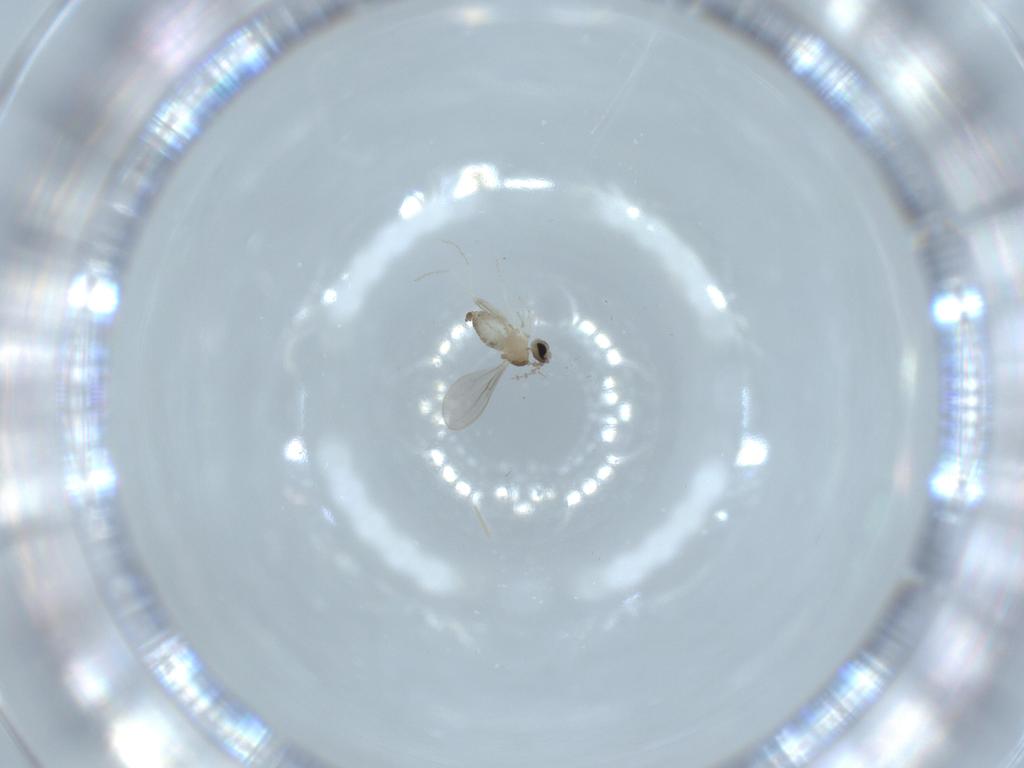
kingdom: Animalia
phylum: Arthropoda
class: Insecta
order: Diptera
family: Cecidomyiidae
